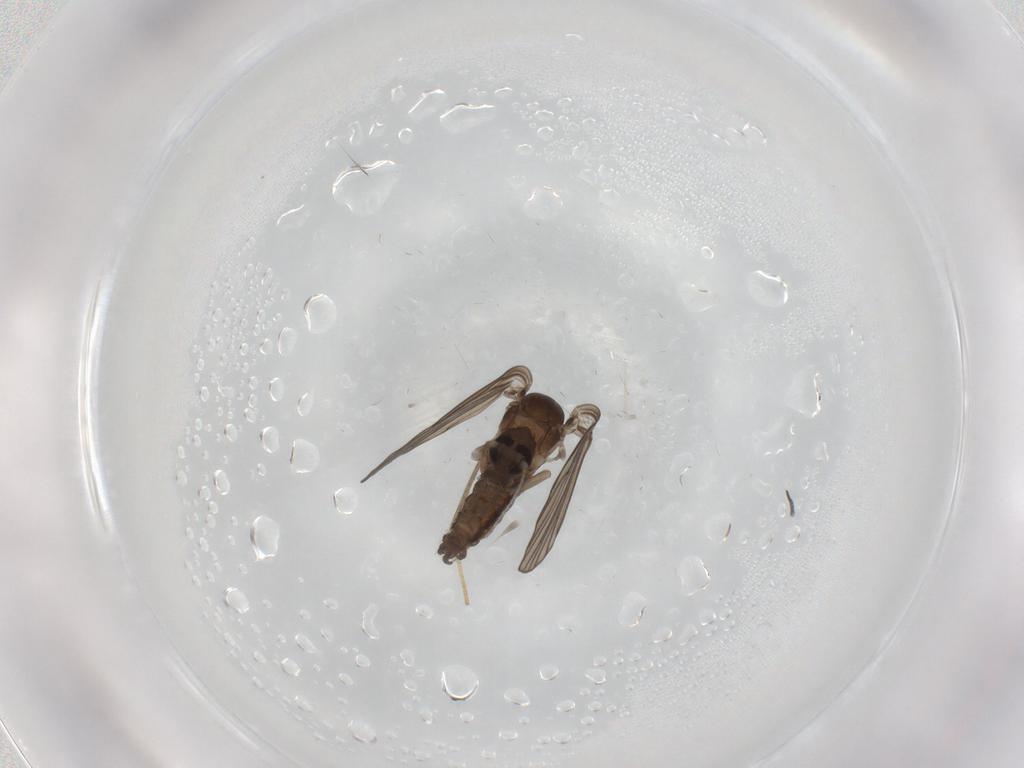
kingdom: Animalia
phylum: Arthropoda
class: Insecta
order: Diptera
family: Psychodidae
